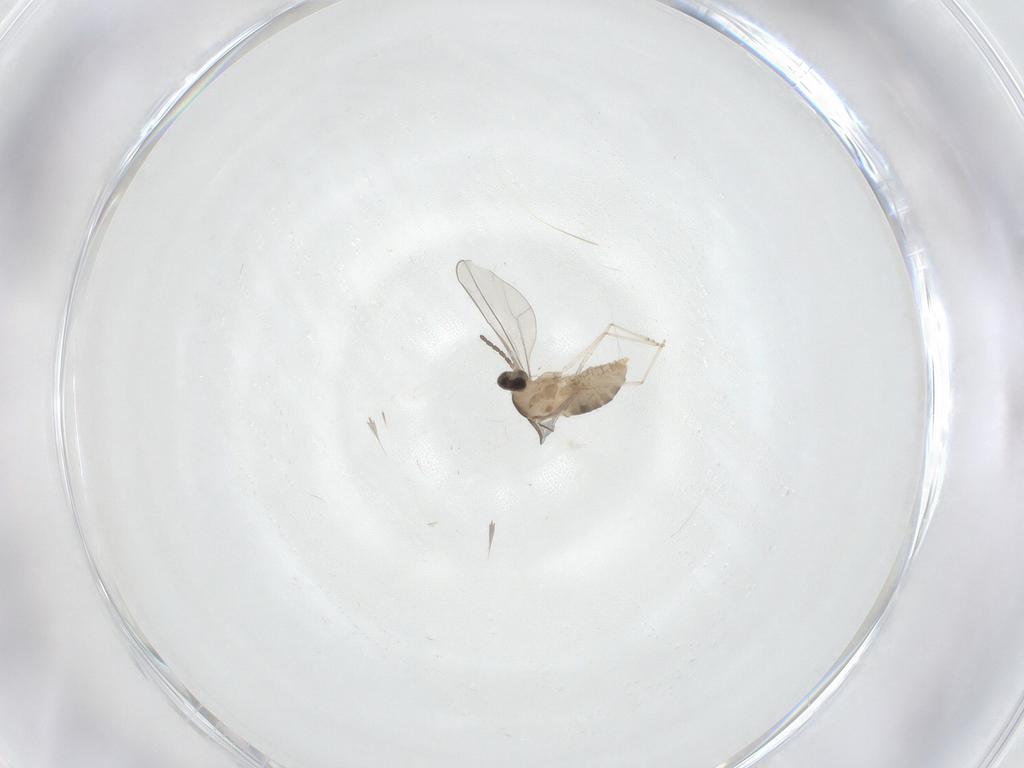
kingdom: Animalia
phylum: Arthropoda
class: Insecta
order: Diptera
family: Cecidomyiidae
